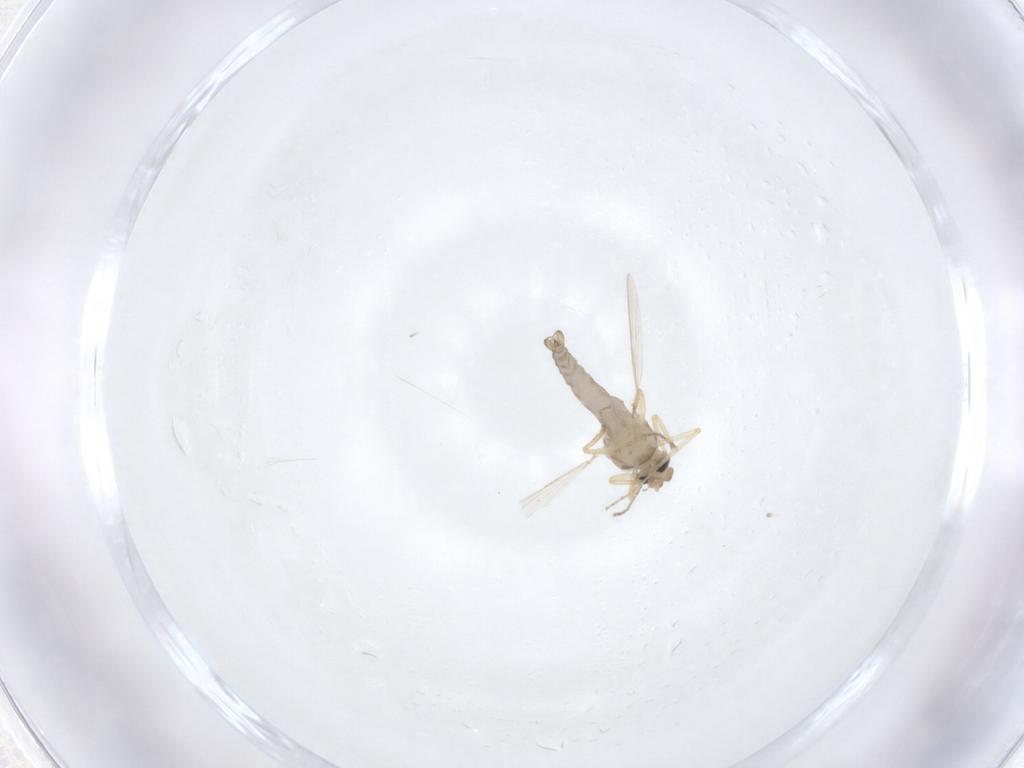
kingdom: Animalia
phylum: Arthropoda
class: Insecta
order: Diptera
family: Ceratopogonidae
